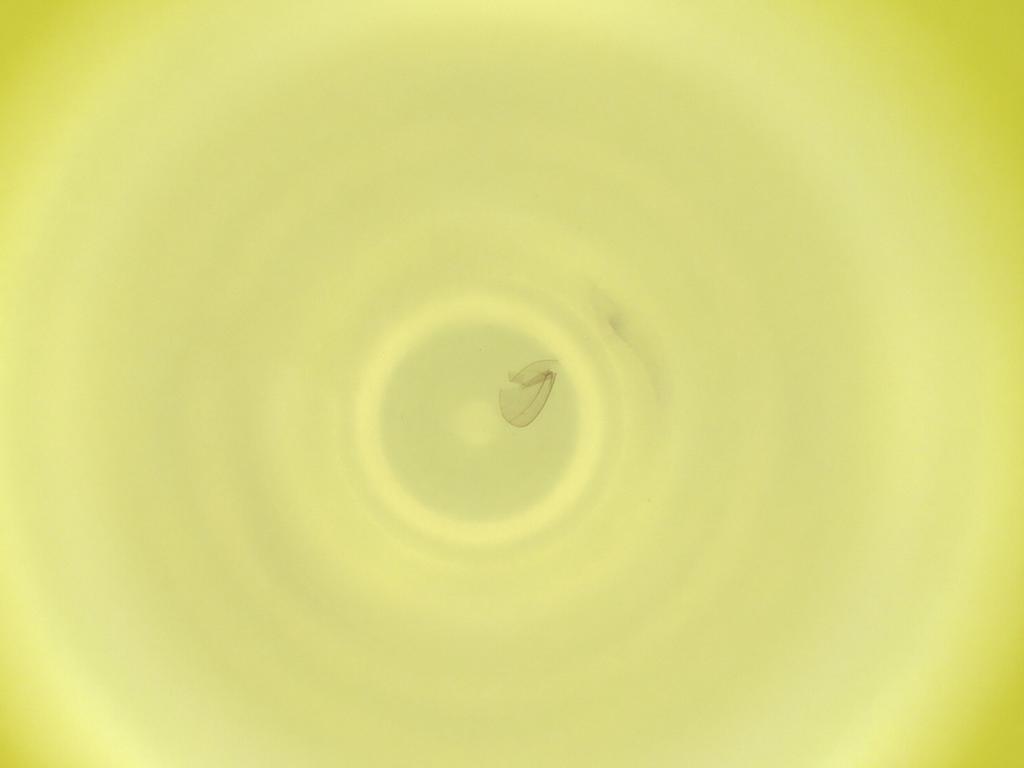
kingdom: Animalia
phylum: Arthropoda
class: Insecta
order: Diptera
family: Cecidomyiidae
